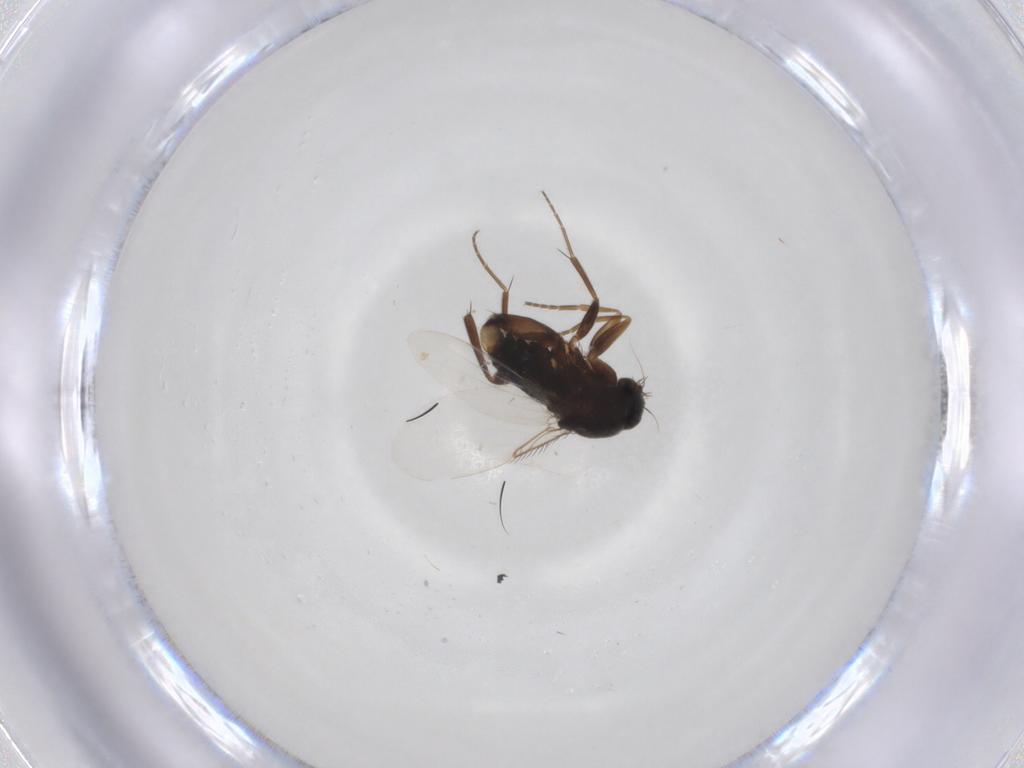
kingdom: Animalia
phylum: Arthropoda
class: Insecta
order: Diptera
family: Chloropidae
